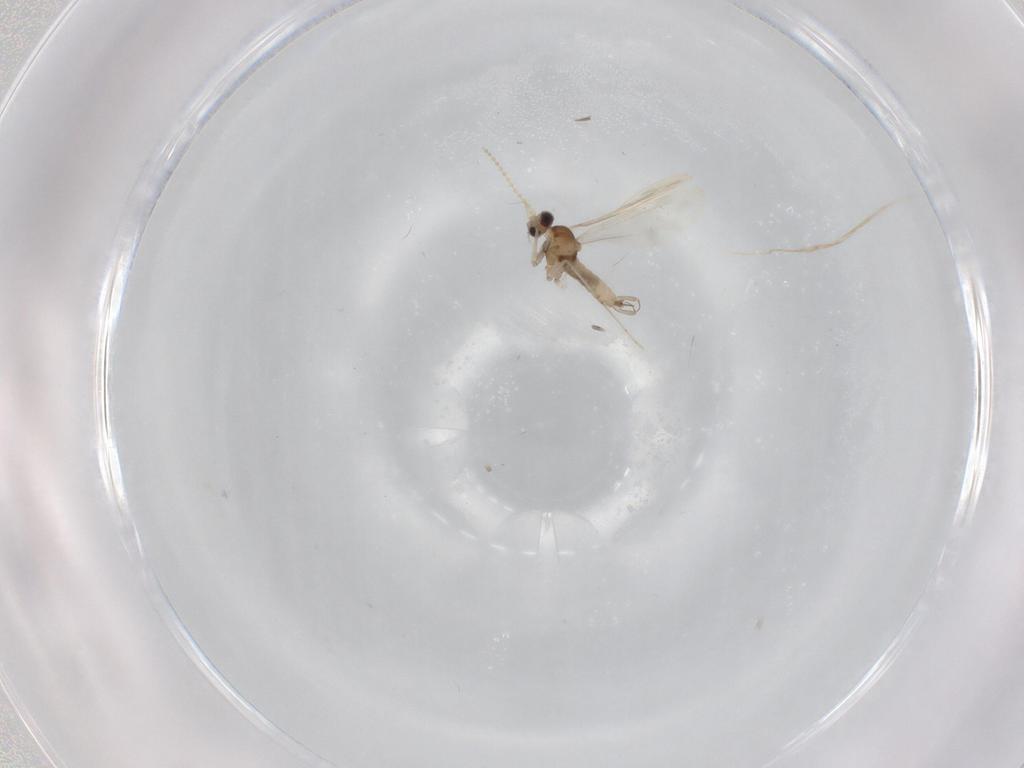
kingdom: Animalia
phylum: Arthropoda
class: Insecta
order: Diptera
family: Cecidomyiidae
